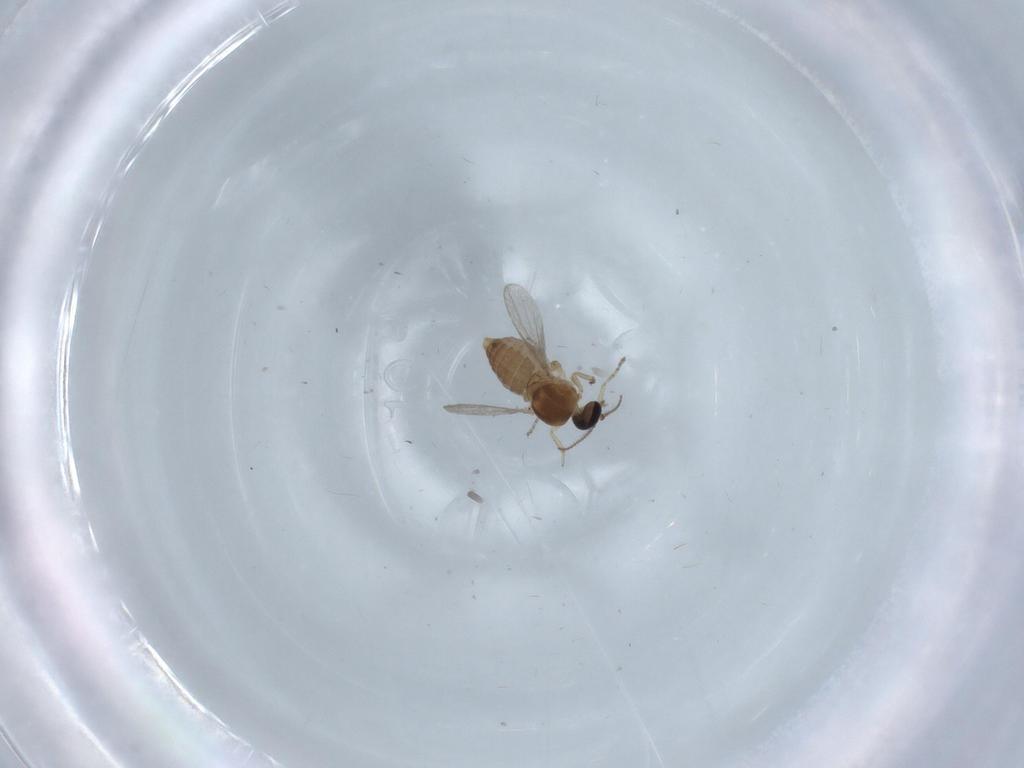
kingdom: Animalia
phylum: Arthropoda
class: Insecta
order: Diptera
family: Ceratopogonidae
